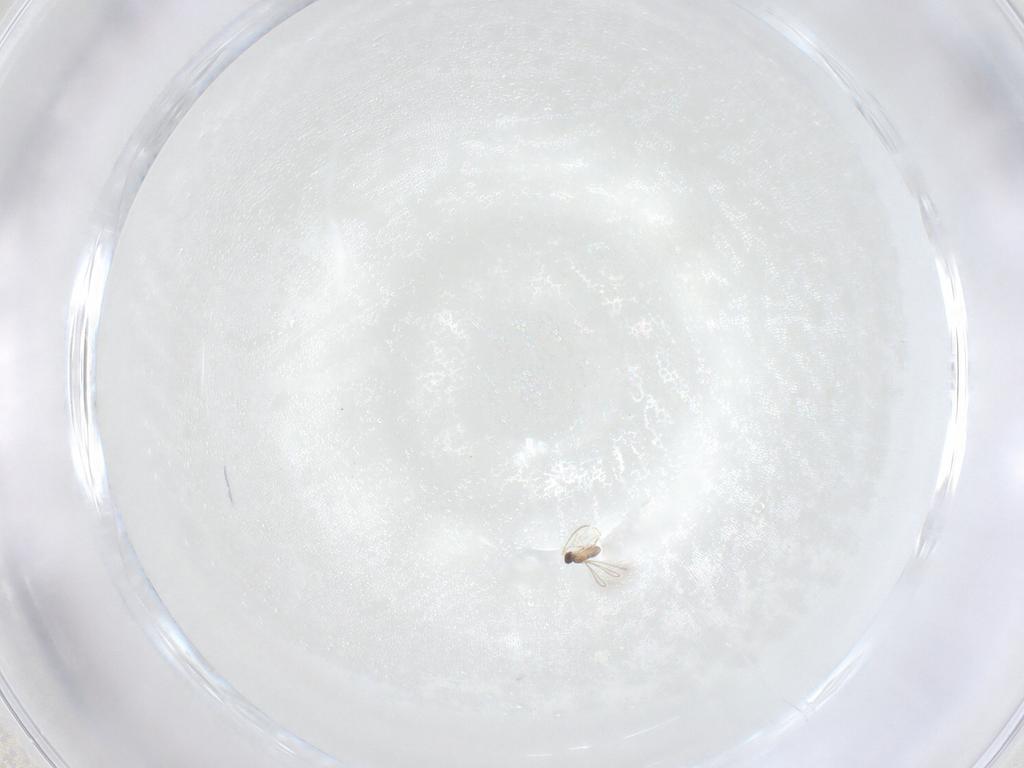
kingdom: Animalia
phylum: Arthropoda
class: Insecta
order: Hymenoptera
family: Mymaridae
